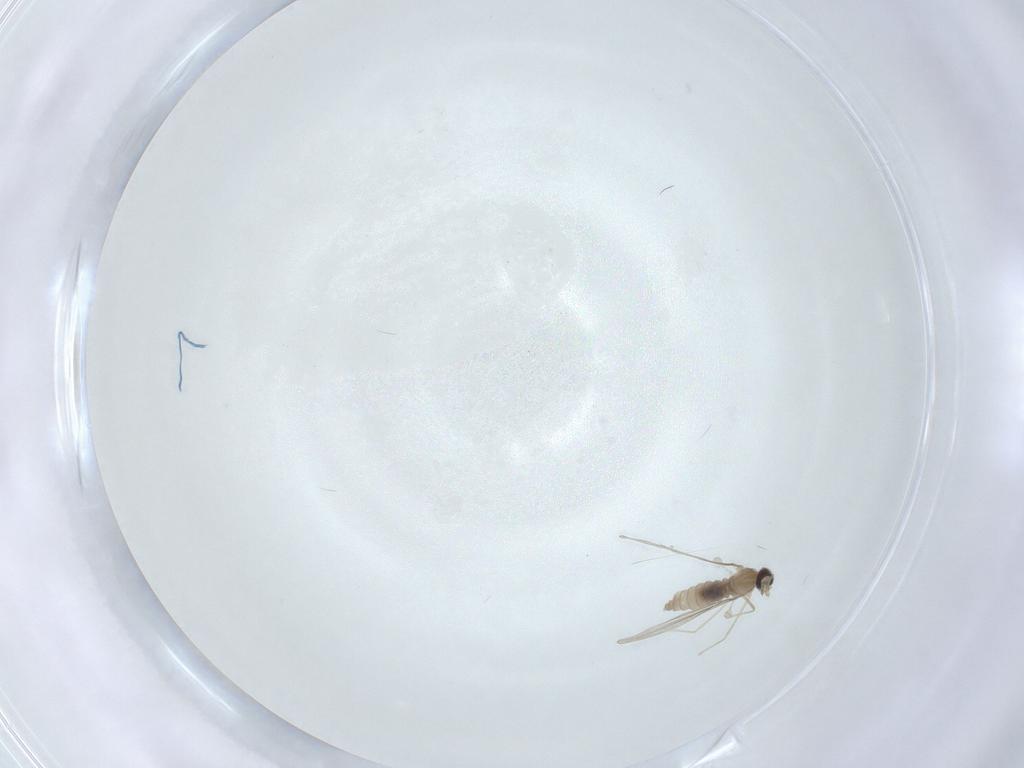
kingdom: Animalia
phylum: Arthropoda
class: Insecta
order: Diptera
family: Cecidomyiidae
